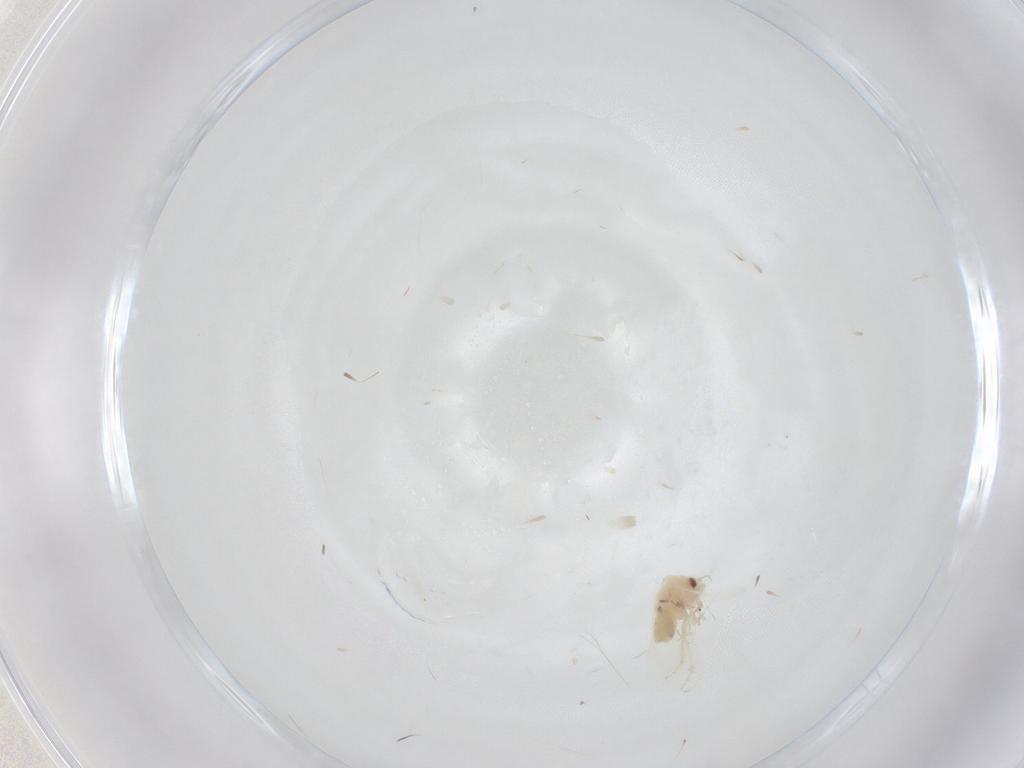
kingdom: Animalia
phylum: Arthropoda
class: Insecta
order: Hemiptera
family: Aleyrodidae
